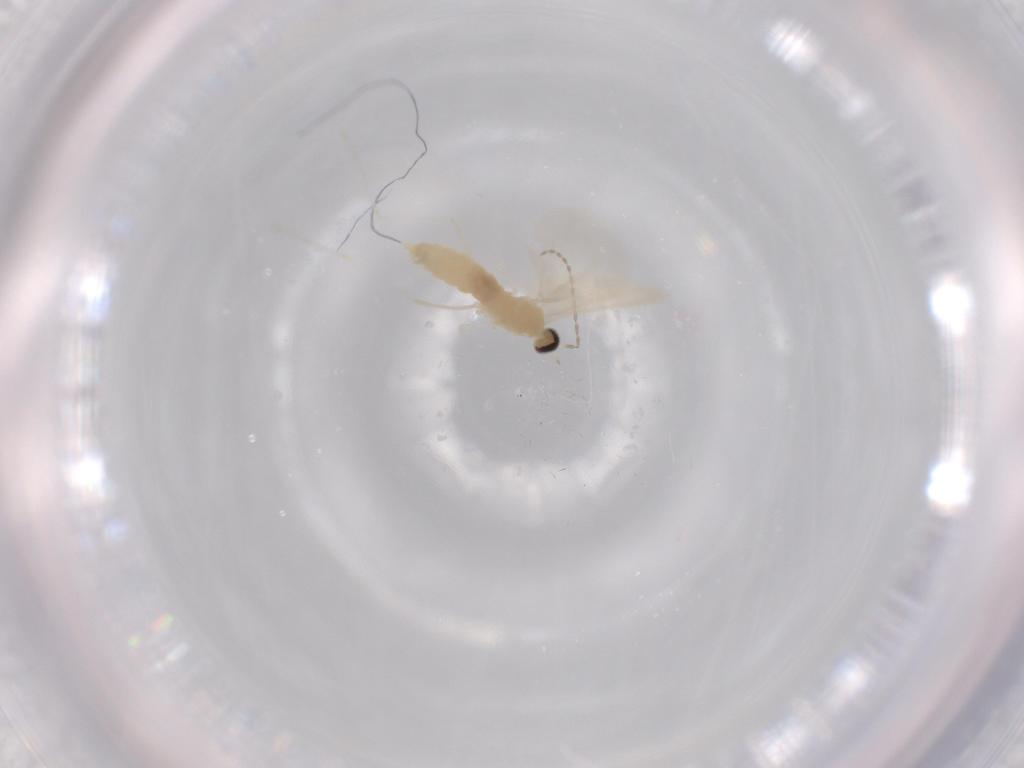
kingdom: Animalia
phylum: Arthropoda
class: Insecta
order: Diptera
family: Cecidomyiidae
